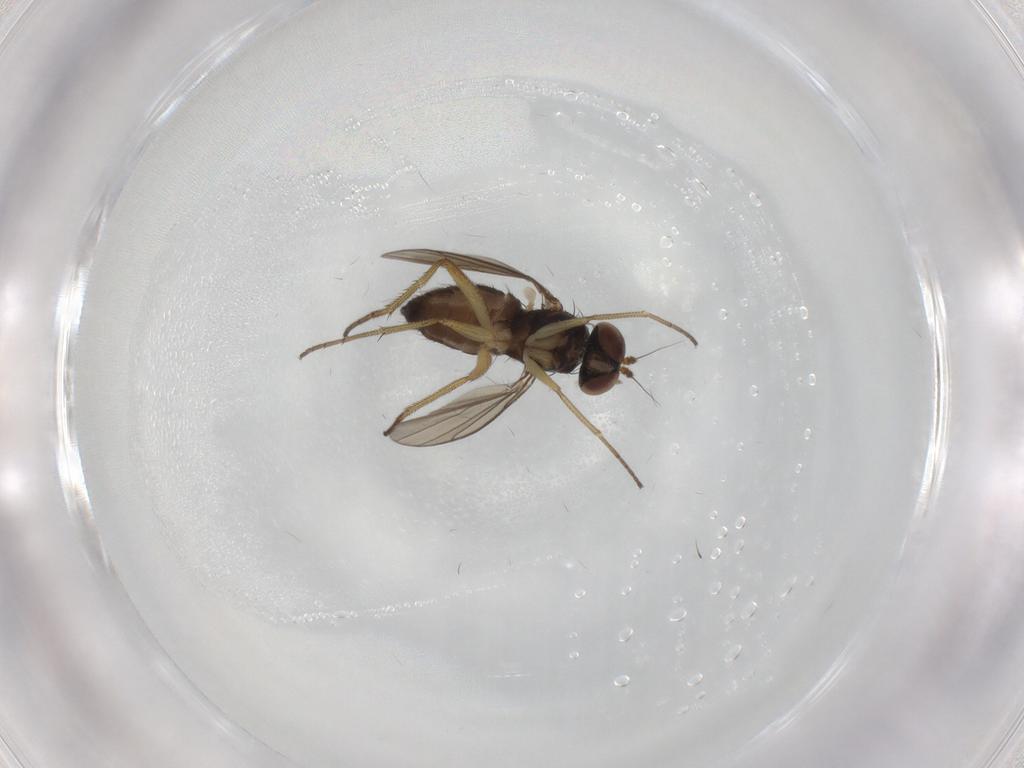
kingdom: Animalia
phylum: Arthropoda
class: Insecta
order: Diptera
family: Dolichopodidae
